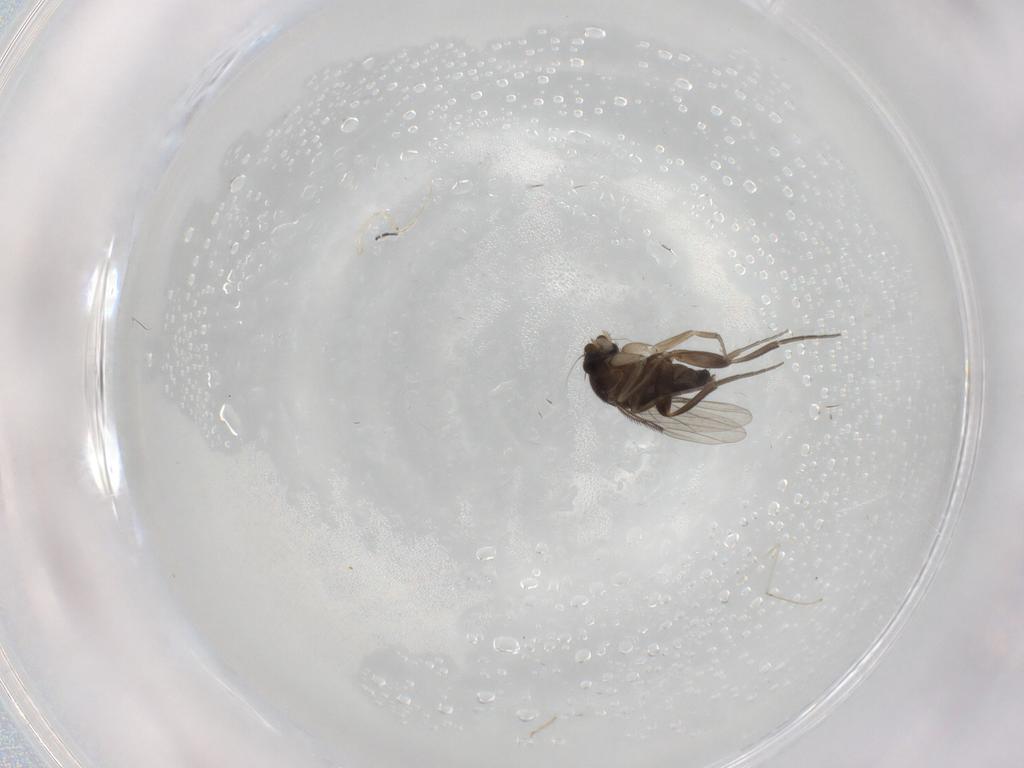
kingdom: Animalia
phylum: Arthropoda
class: Insecta
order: Diptera
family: Phoridae
